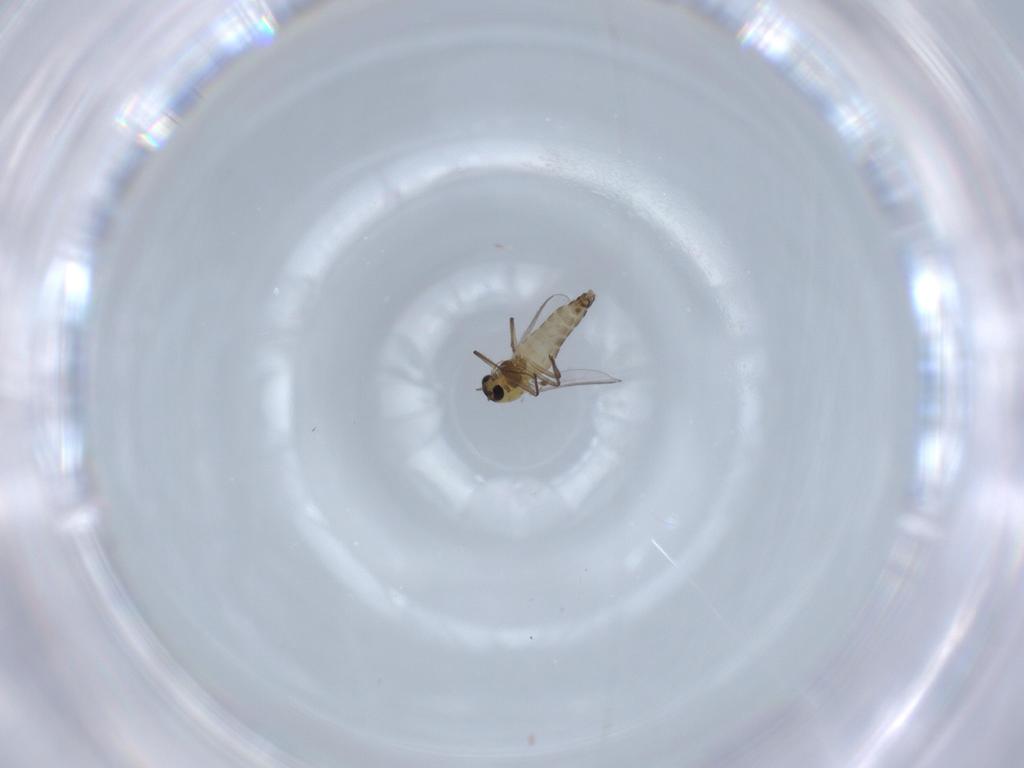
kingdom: Animalia
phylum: Arthropoda
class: Insecta
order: Diptera
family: Chironomidae
